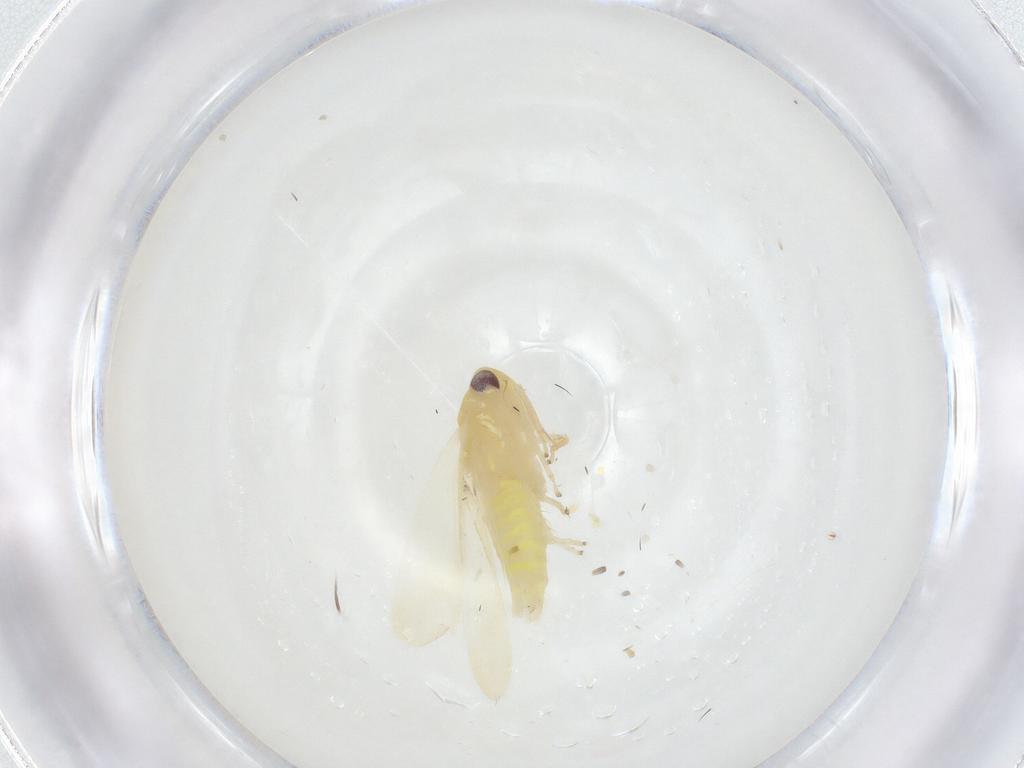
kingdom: Animalia
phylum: Arthropoda
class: Insecta
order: Hemiptera
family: Cicadellidae
